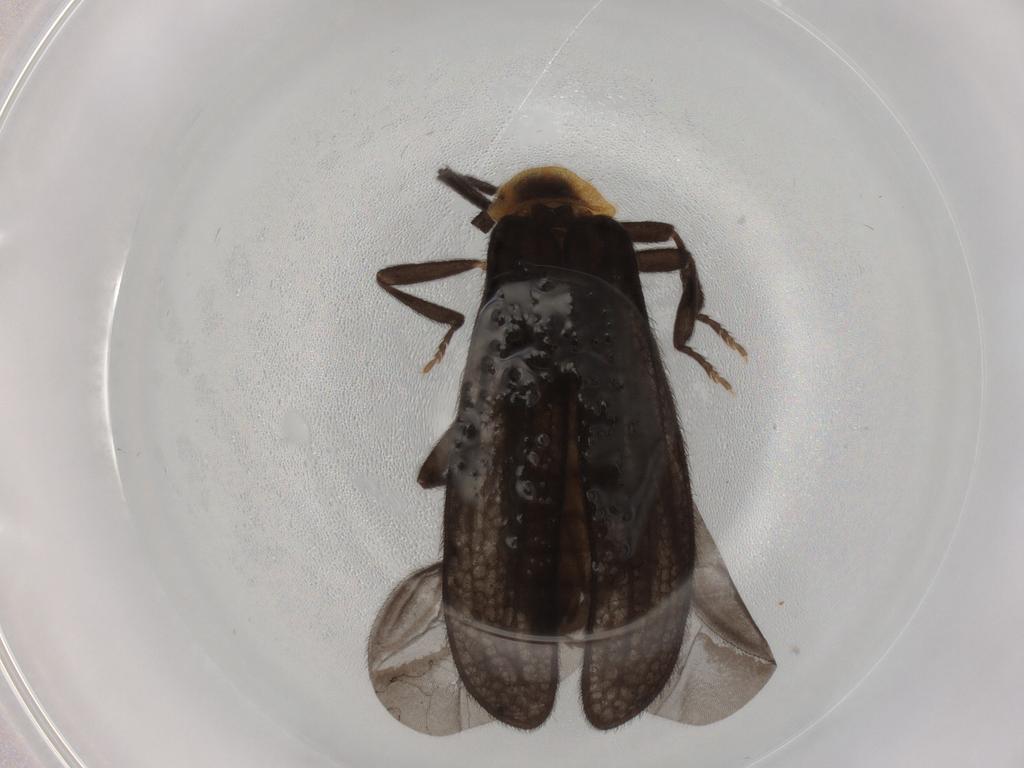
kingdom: Animalia
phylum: Arthropoda
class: Insecta
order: Coleoptera
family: Lycidae
